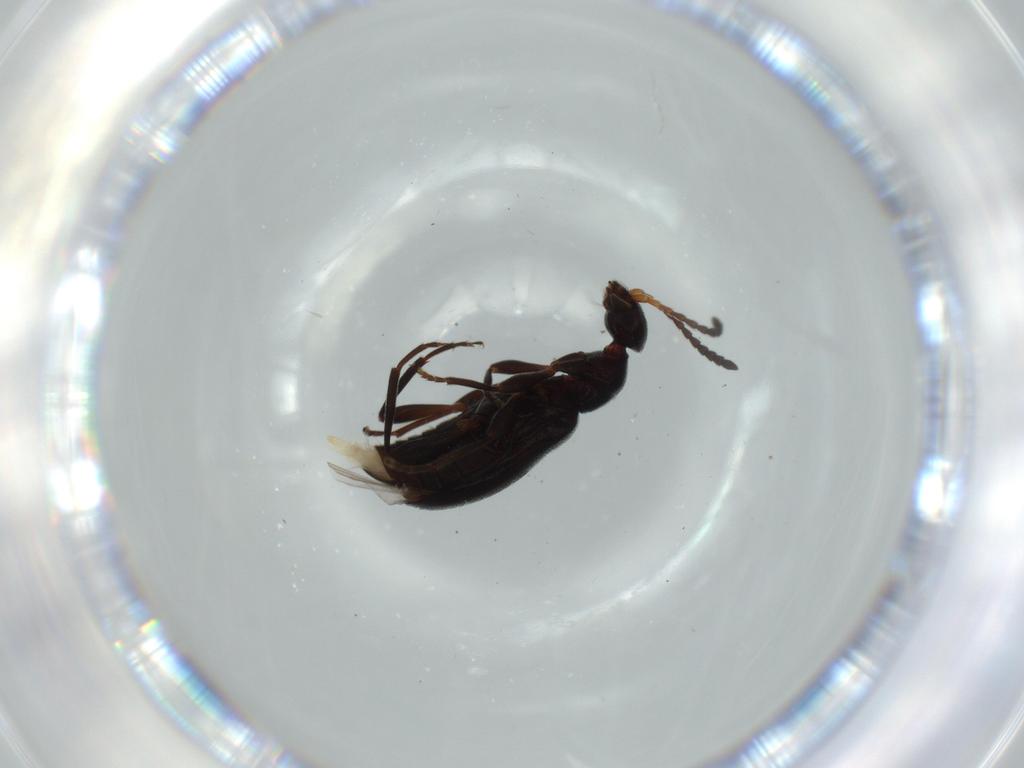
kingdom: Animalia
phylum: Arthropoda
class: Insecta
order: Coleoptera
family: Anthicidae
